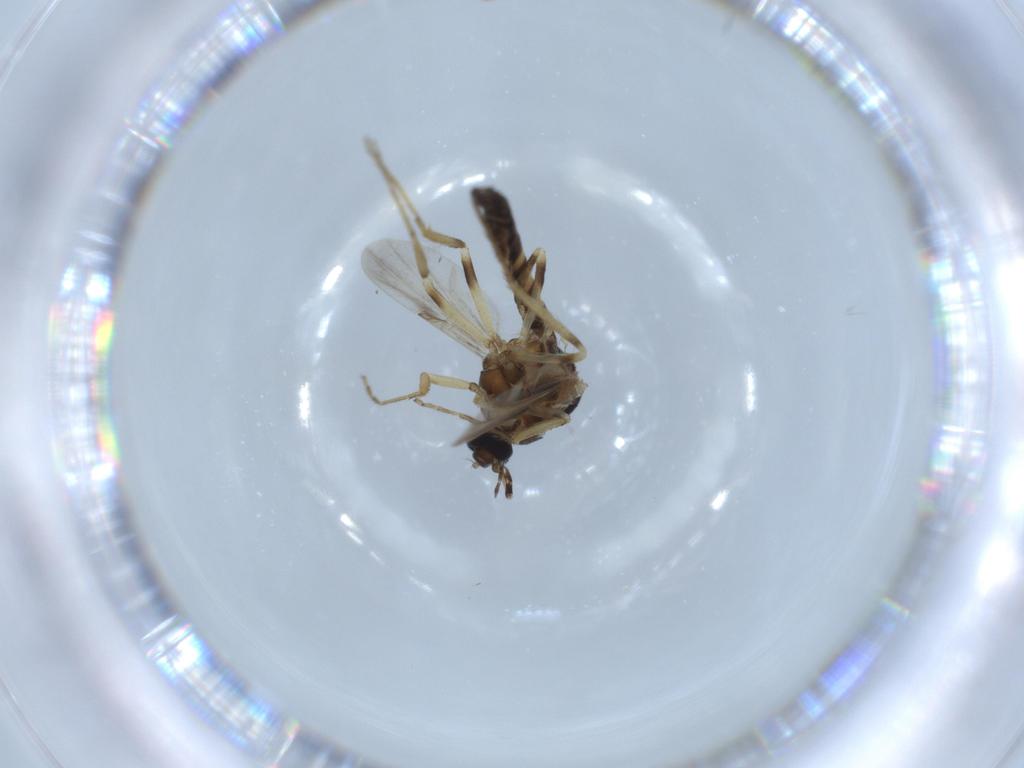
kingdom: Animalia
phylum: Arthropoda
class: Insecta
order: Diptera
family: Sciaridae
